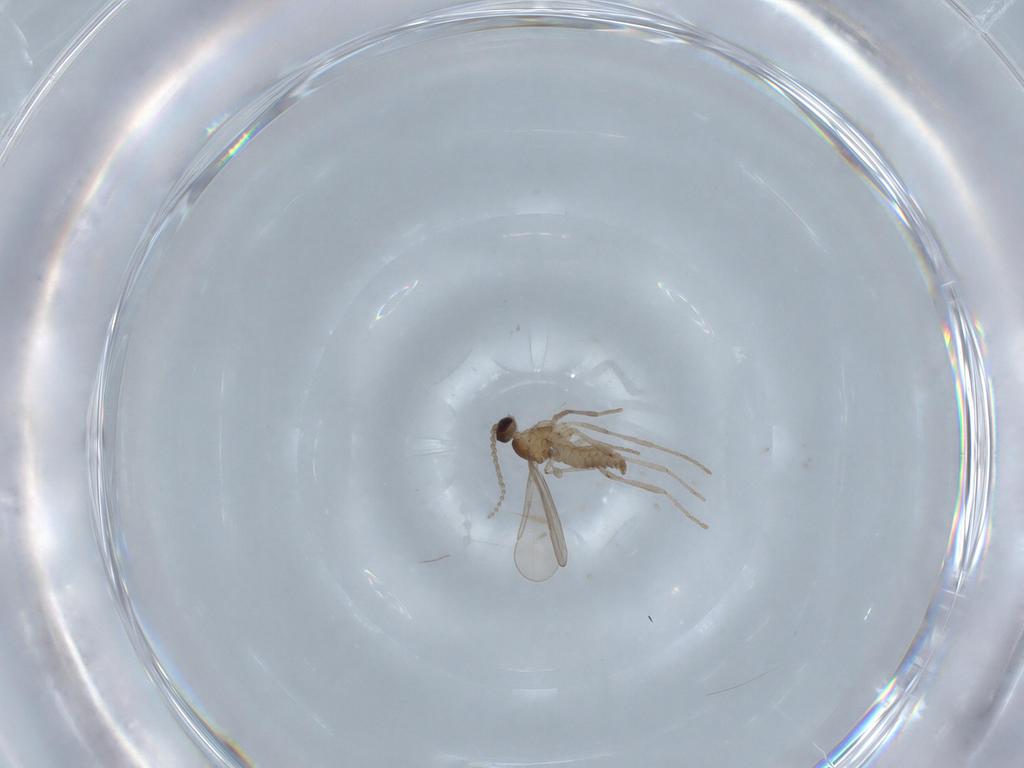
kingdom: Animalia
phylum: Arthropoda
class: Insecta
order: Diptera
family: Cecidomyiidae
